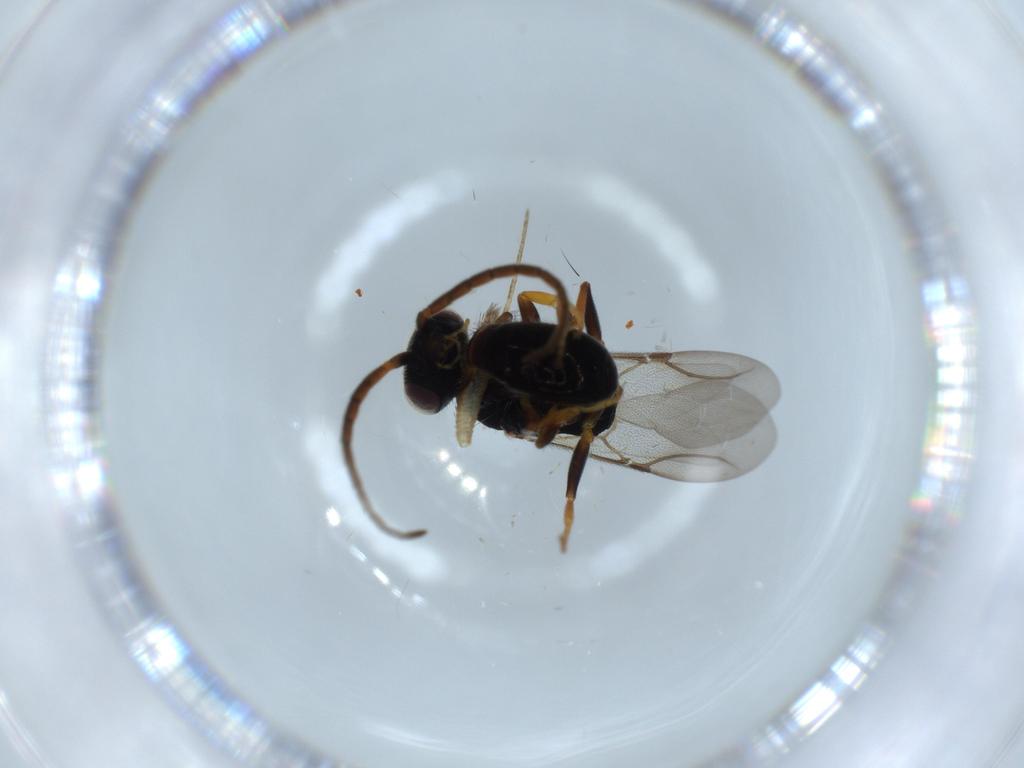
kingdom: Animalia
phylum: Arthropoda
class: Insecta
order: Hymenoptera
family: Bethylidae
